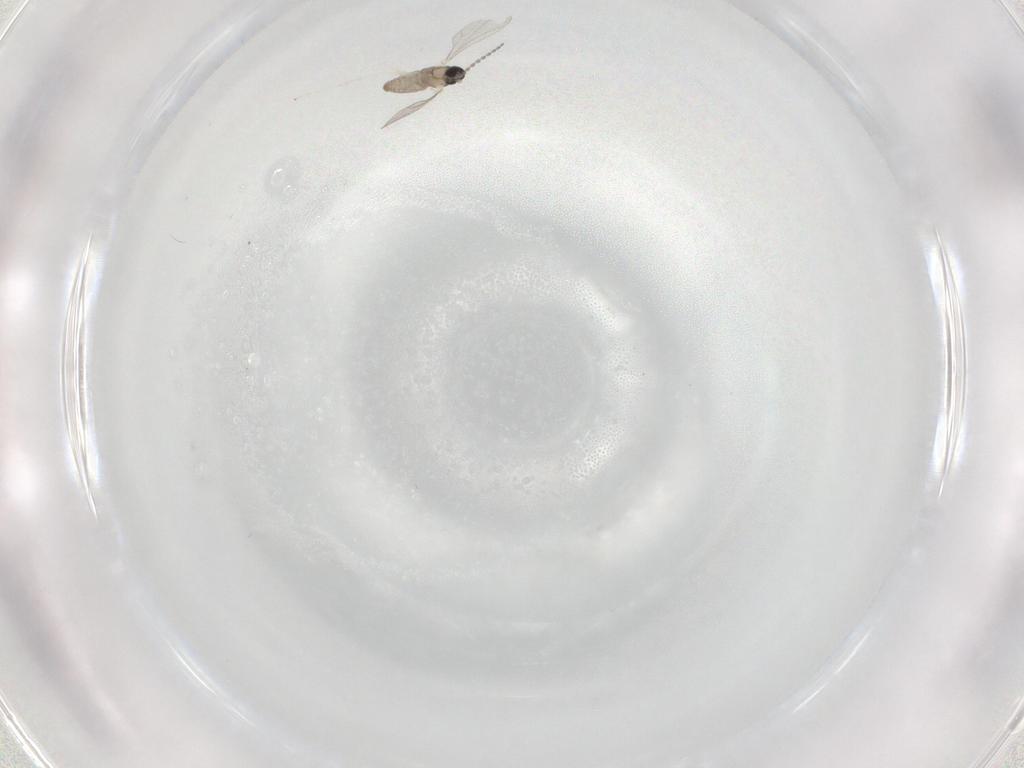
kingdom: Animalia
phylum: Arthropoda
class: Insecta
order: Diptera
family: Cecidomyiidae
